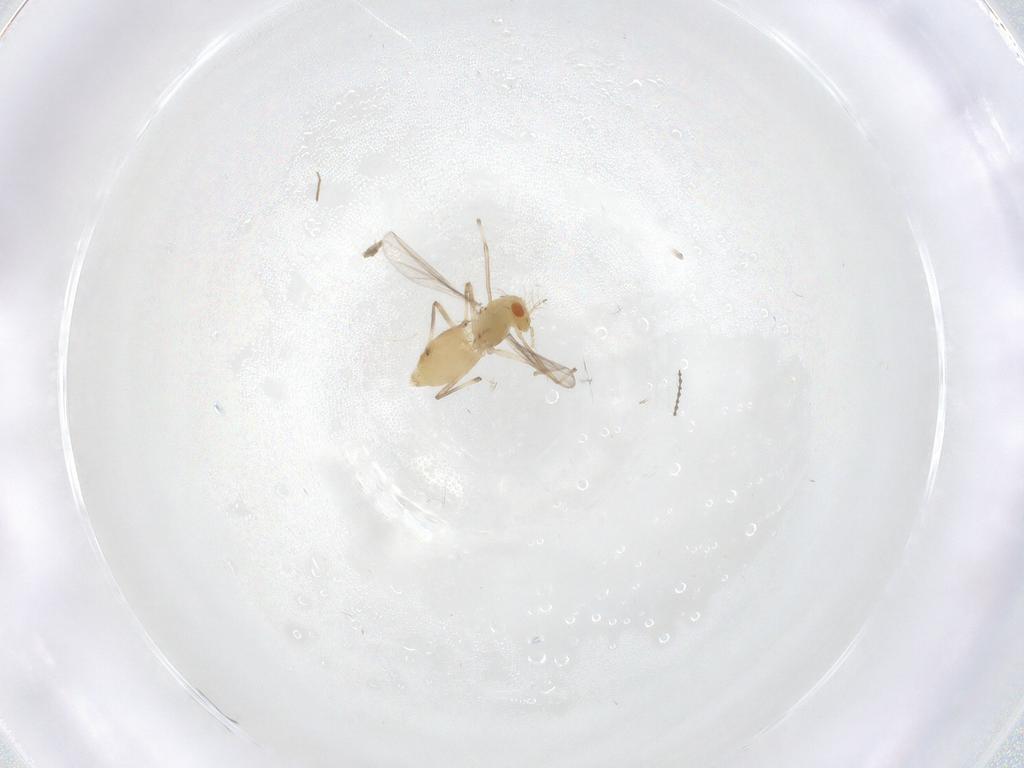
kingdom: Animalia
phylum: Arthropoda
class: Insecta
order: Diptera
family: Chironomidae
